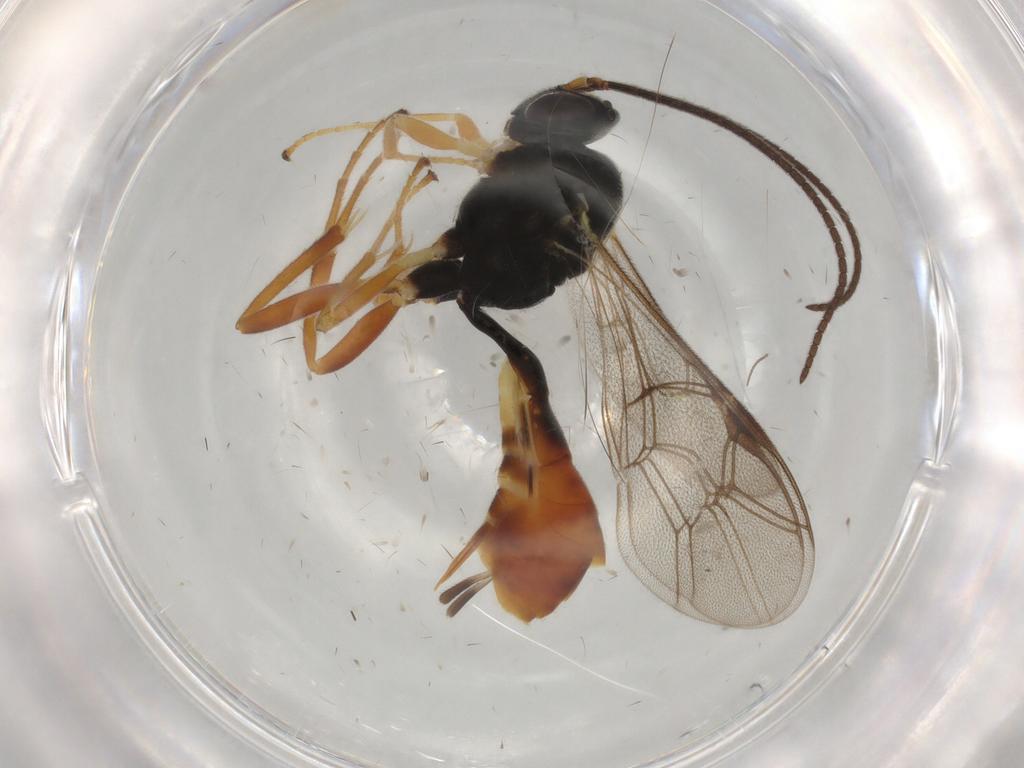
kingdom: Animalia
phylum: Arthropoda
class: Insecta
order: Hymenoptera
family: Ichneumonidae
